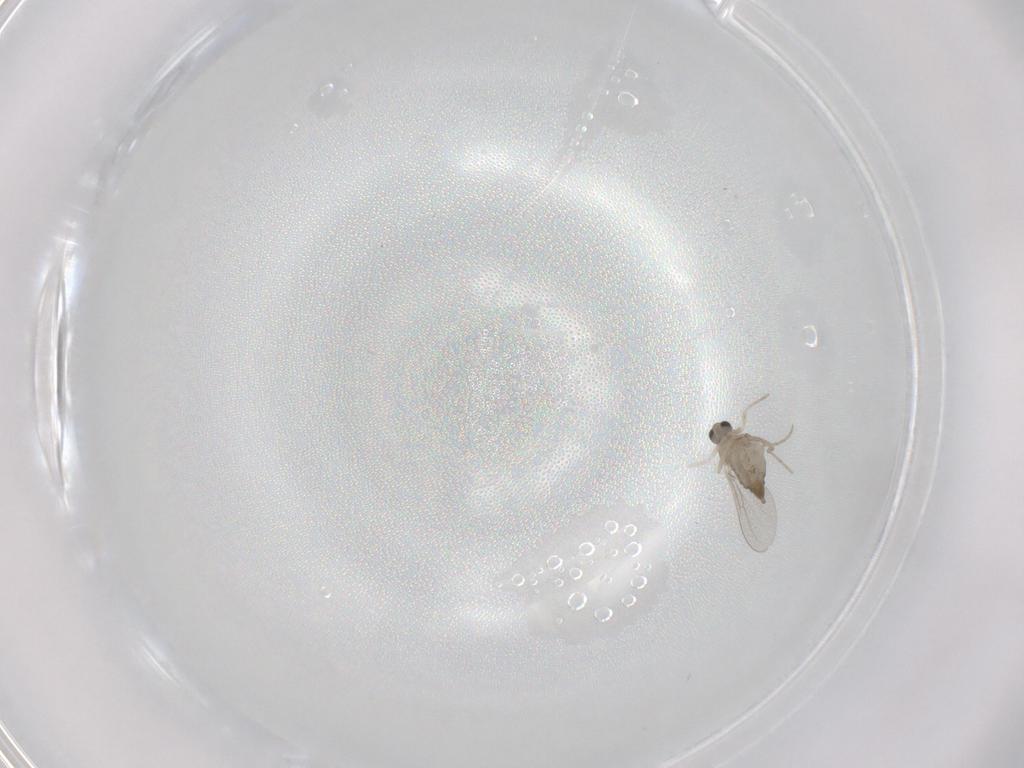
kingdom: Animalia
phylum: Arthropoda
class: Insecta
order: Diptera
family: Cecidomyiidae
